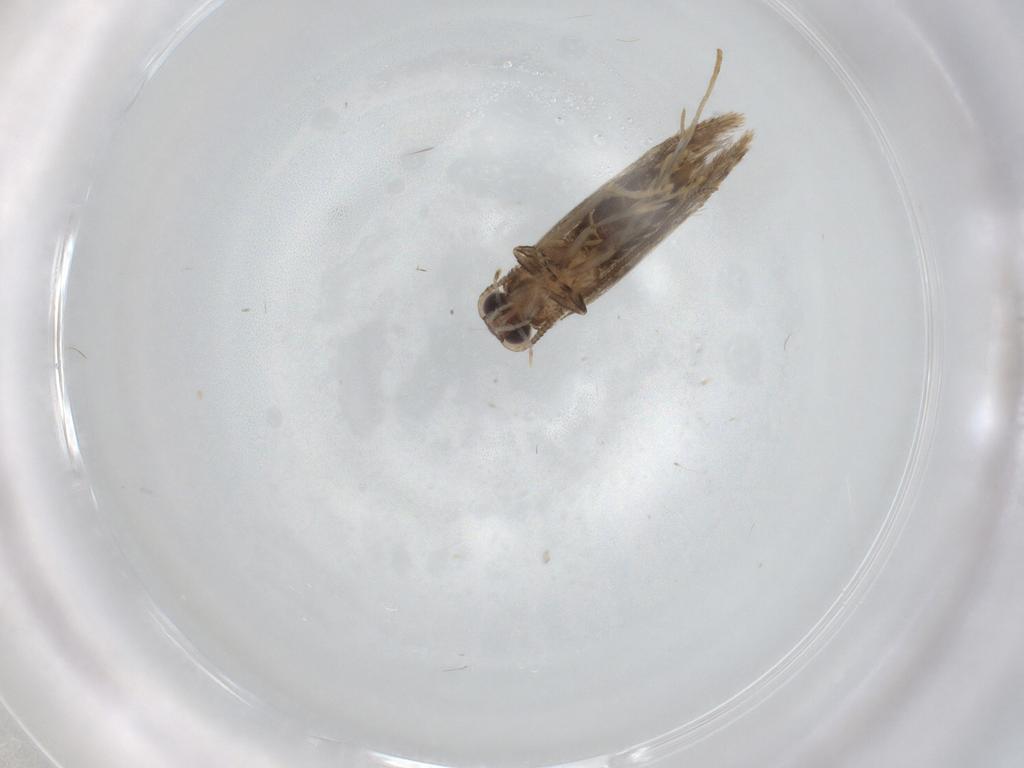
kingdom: Animalia
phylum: Arthropoda
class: Insecta
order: Lepidoptera
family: Tineidae
